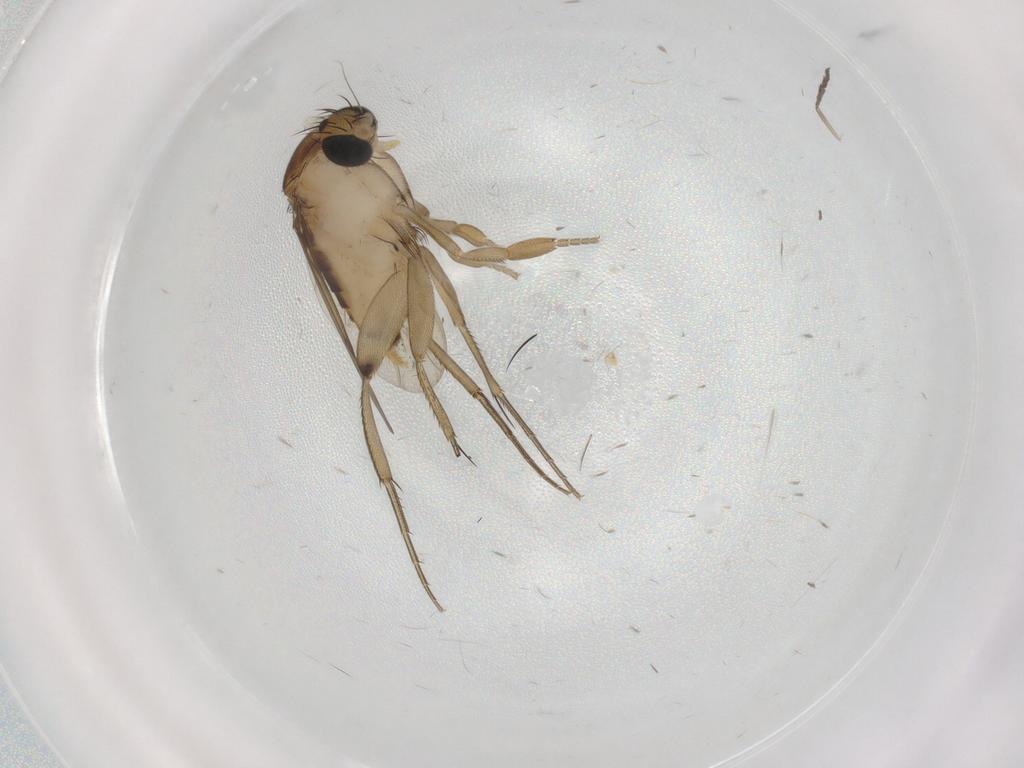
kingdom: Animalia
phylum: Arthropoda
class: Insecta
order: Diptera
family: Phoridae
